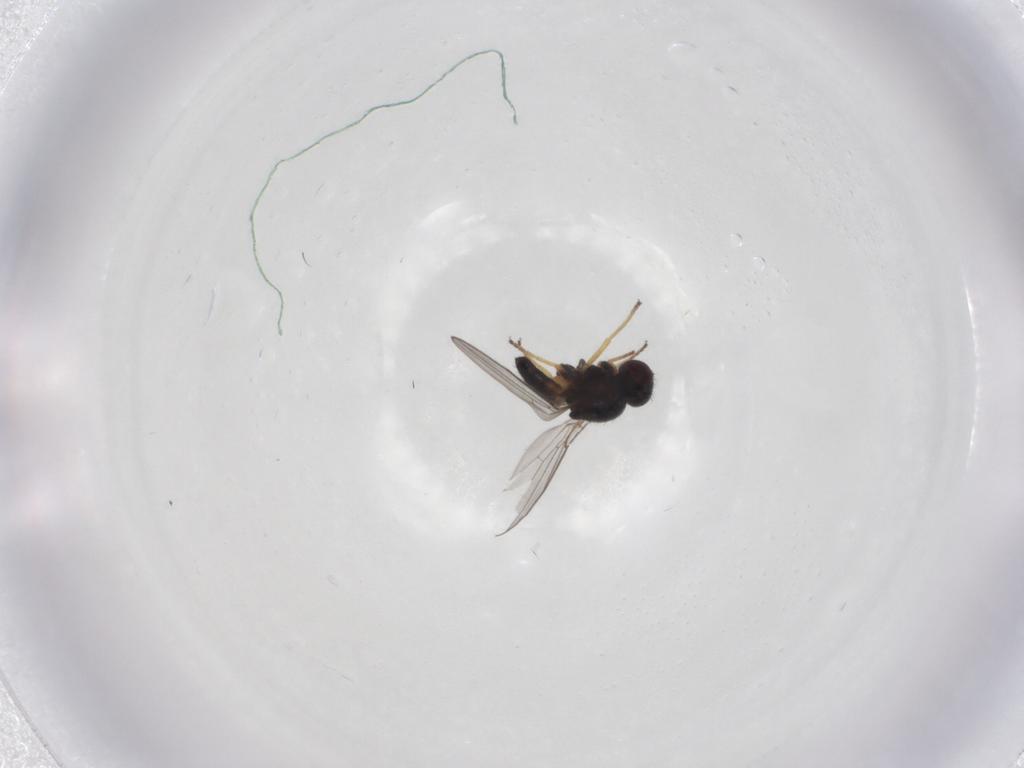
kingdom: Animalia
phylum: Arthropoda
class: Insecta
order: Diptera
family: Chloropidae
